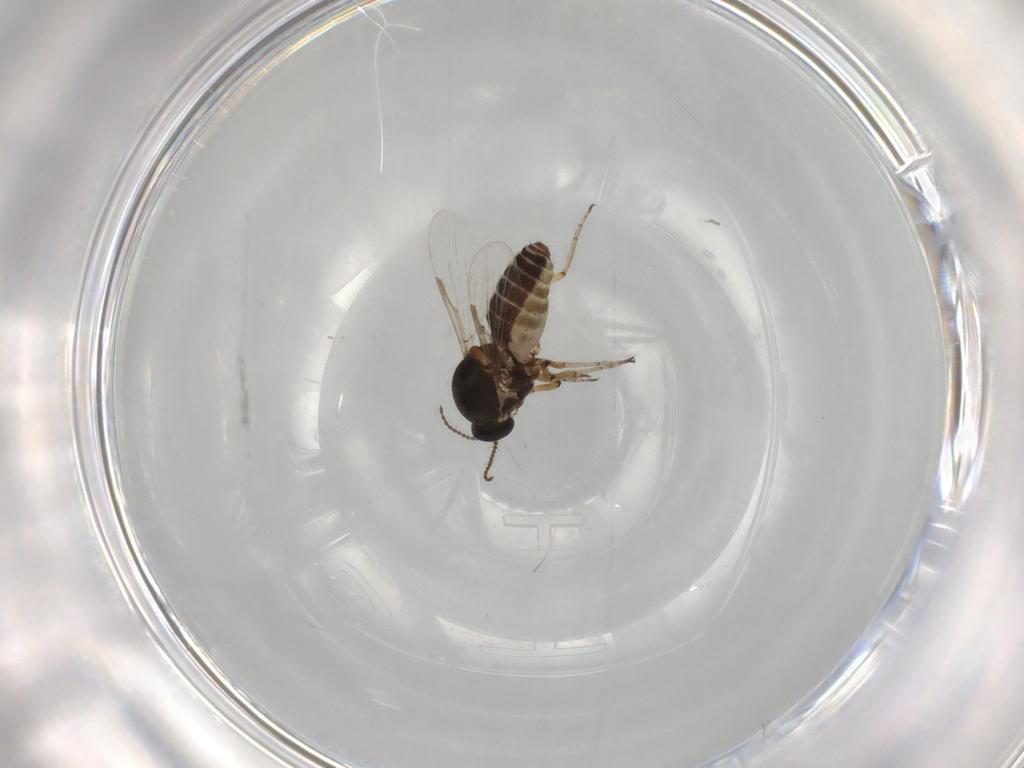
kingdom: Animalia
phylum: Arthropoda
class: Insecta
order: Diptera
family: Ceratopogonidae
